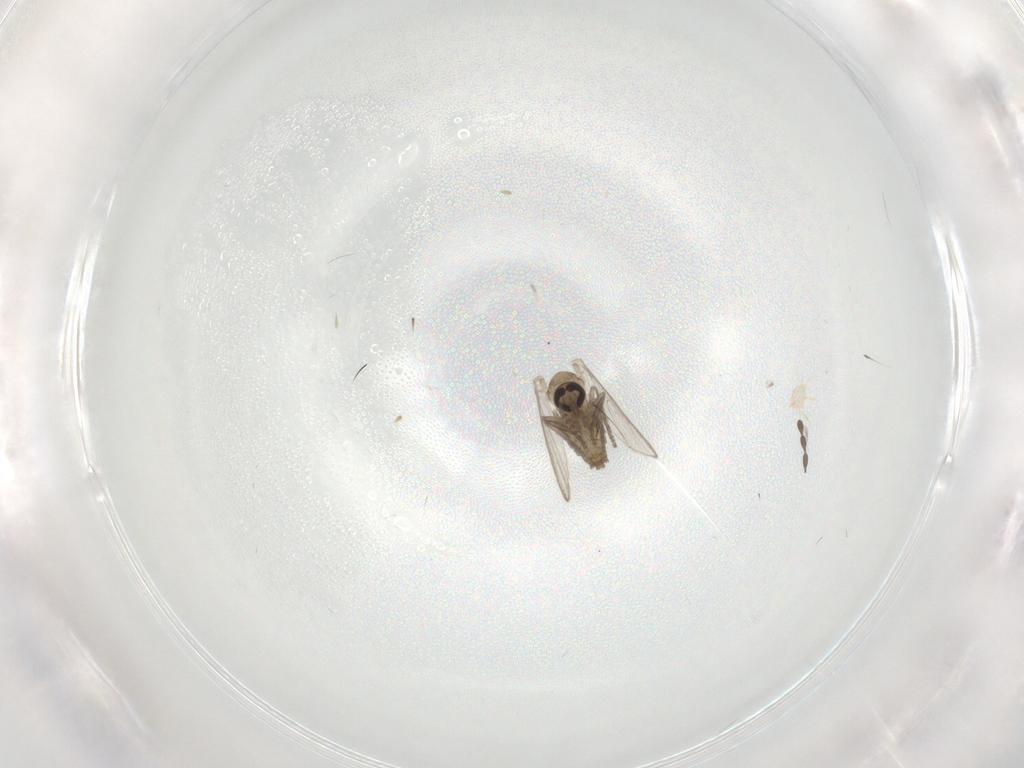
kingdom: Animalia
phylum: Arthropoda
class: Insecta
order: Diptera
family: Psychodidae
